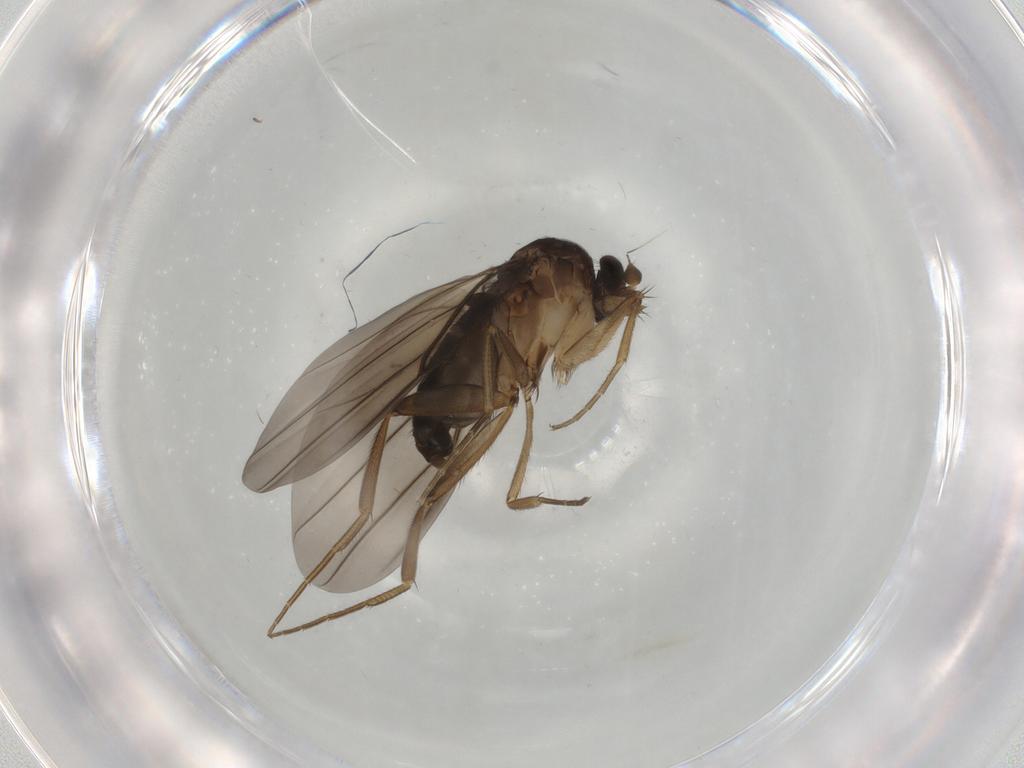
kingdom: Animalia
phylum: Arthropoda
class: Insecta
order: Diptera
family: Phoridae
